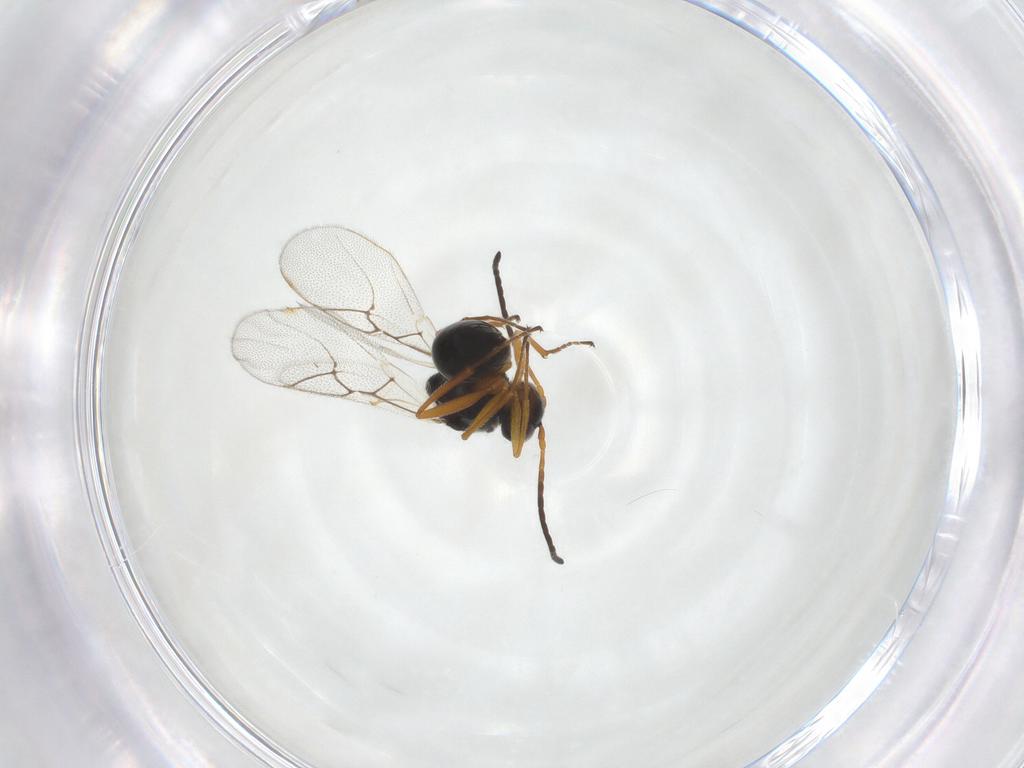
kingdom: Animalia
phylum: Arthropoda
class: Insecta
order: Hymenoptera
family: Figitidae
